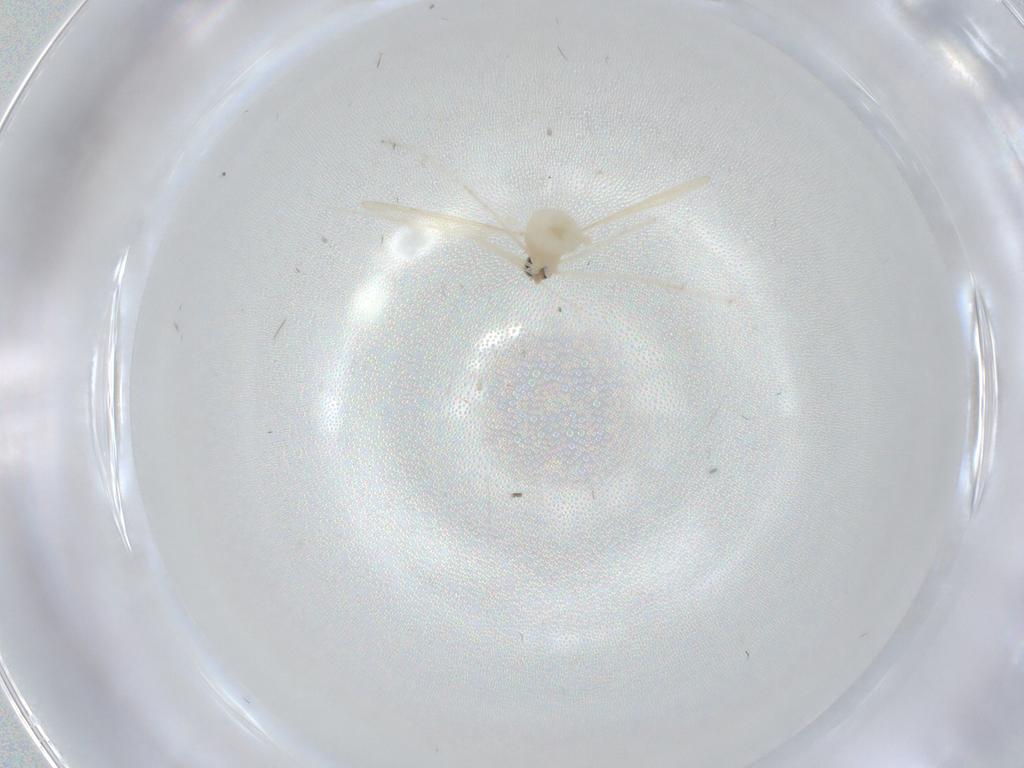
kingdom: Animalia
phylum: Arthropoda
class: Insecta
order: Diptera
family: Psychodidae
